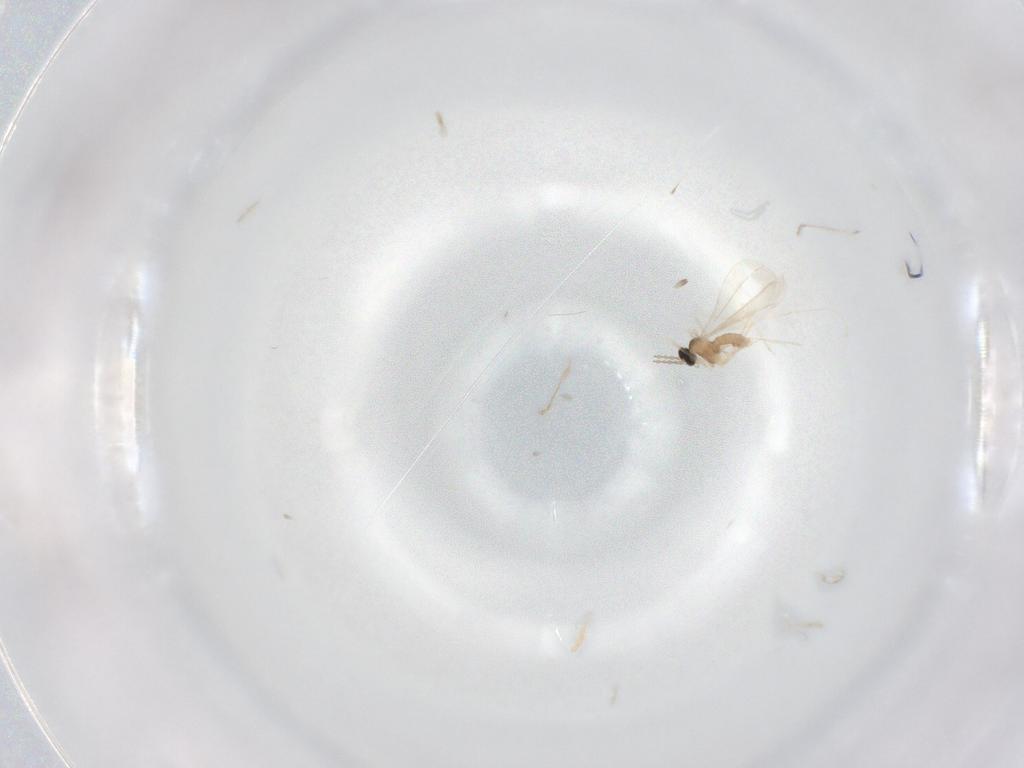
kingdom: Animalia
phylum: Arthropoda
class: Insecta
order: Diptera
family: Cecidomyiidae
